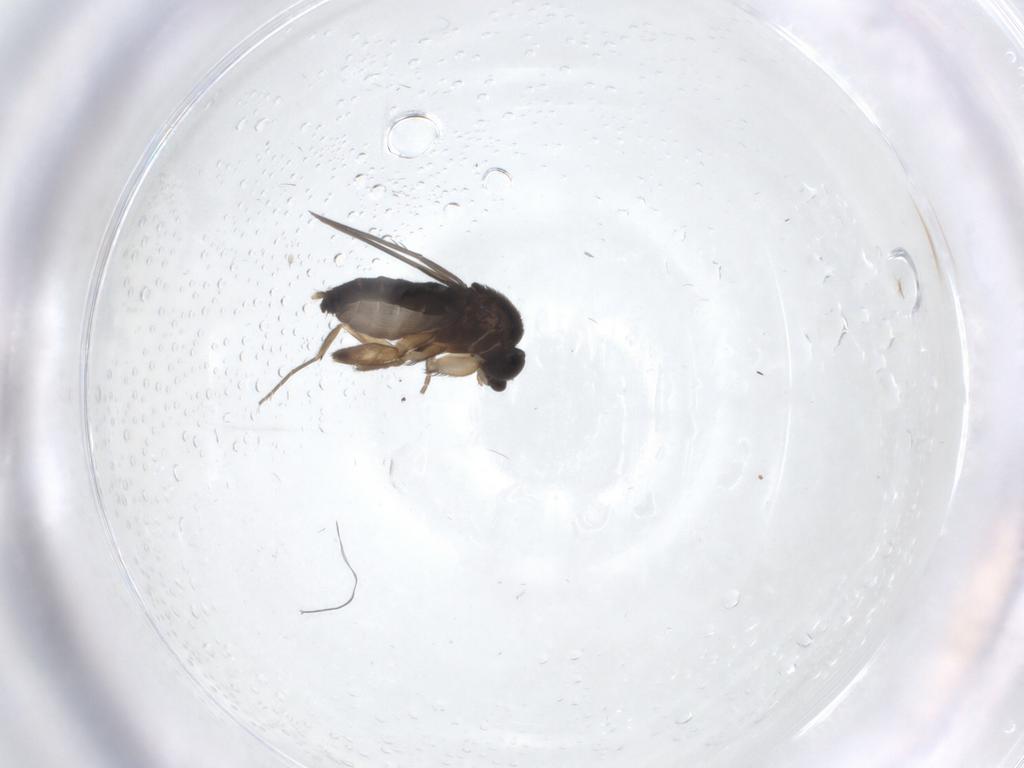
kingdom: Animalia
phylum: Arthropoda
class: Insecta
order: Diptera
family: Phoridae
